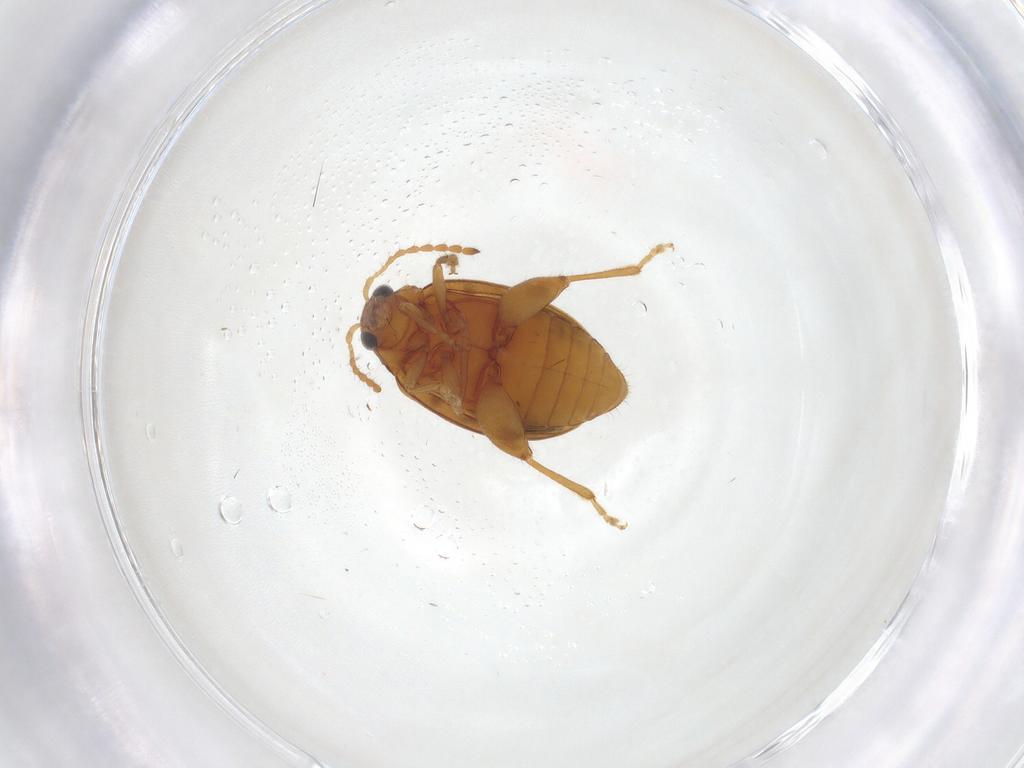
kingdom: Animalia
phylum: Arthropoda
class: Insecta
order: Coleoptera
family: Chrysomelidae
